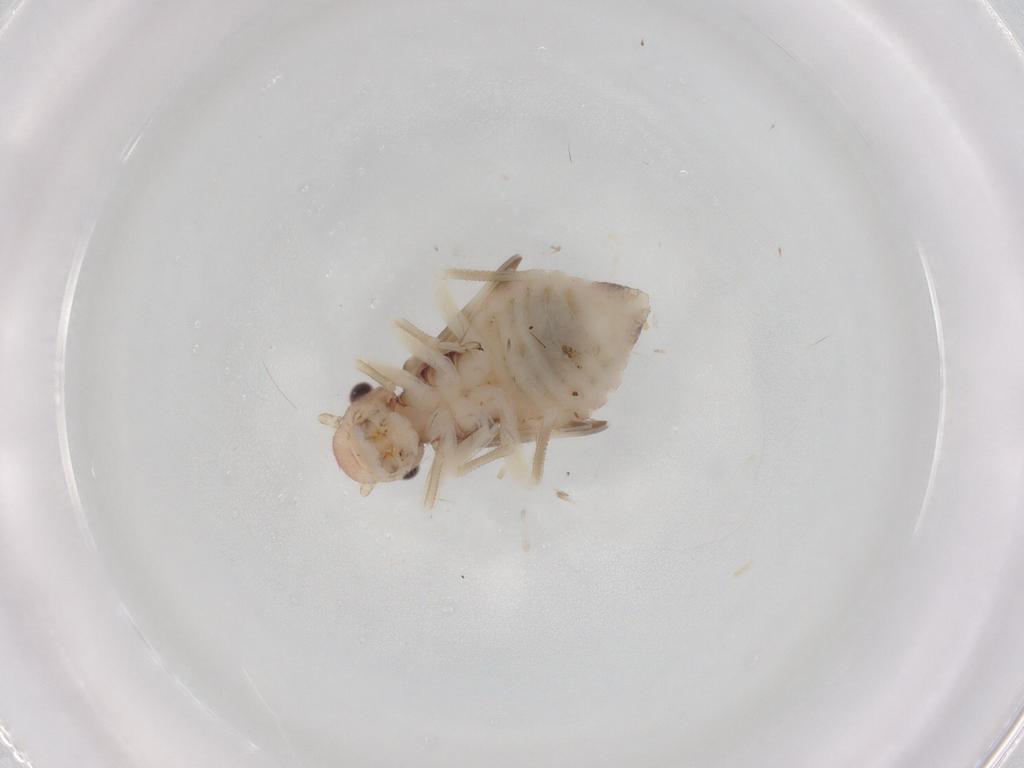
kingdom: Animalia
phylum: Arthropoda
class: Insecta
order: Psocodea
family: Amphipsocidae
